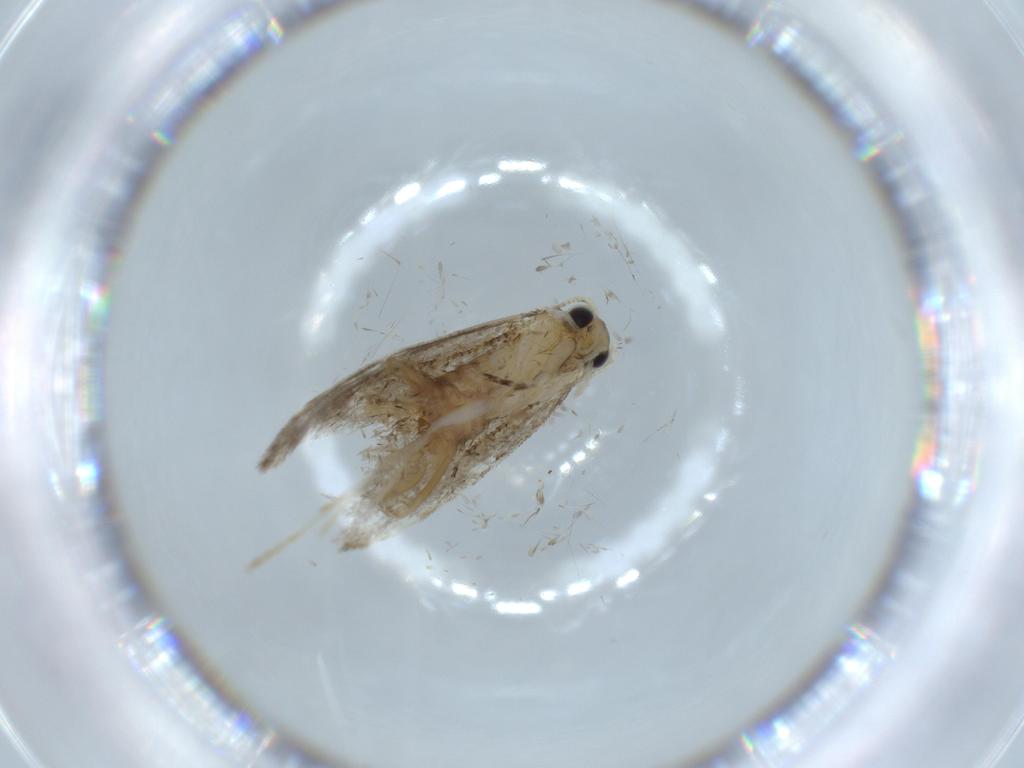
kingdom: Animalia
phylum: Arthropoda
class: Insecta
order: Lepidoptera
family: Tineidae
